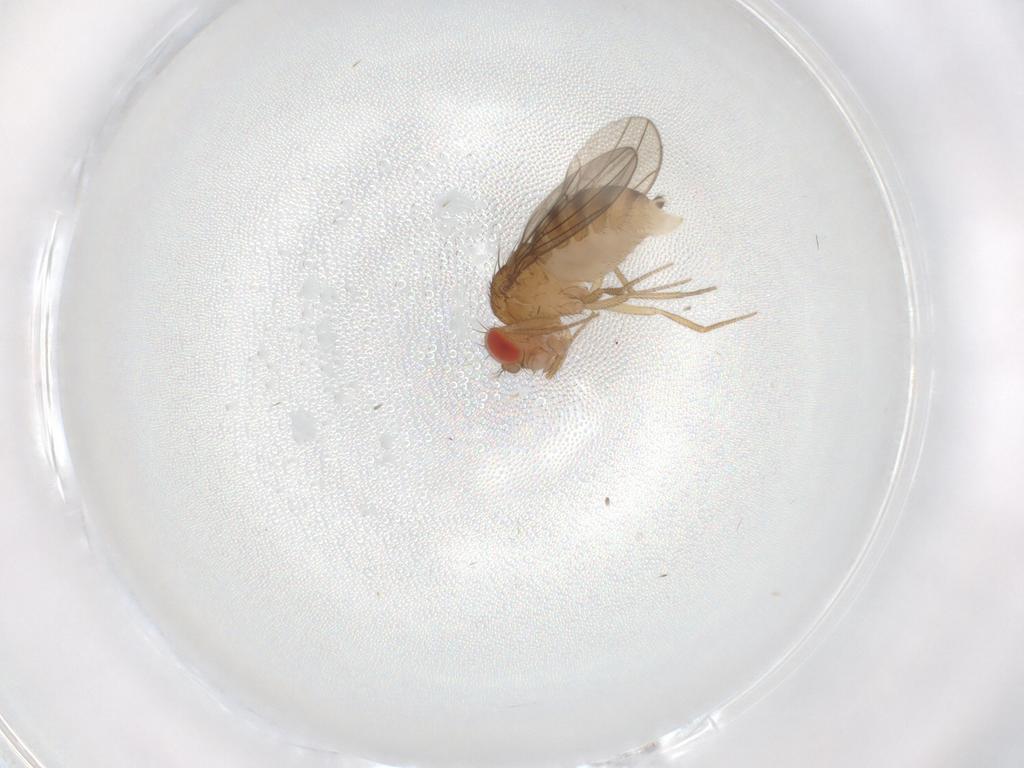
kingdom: Animalia
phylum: Arthropoda
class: Insecta
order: Diptera
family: Drosophilidae
